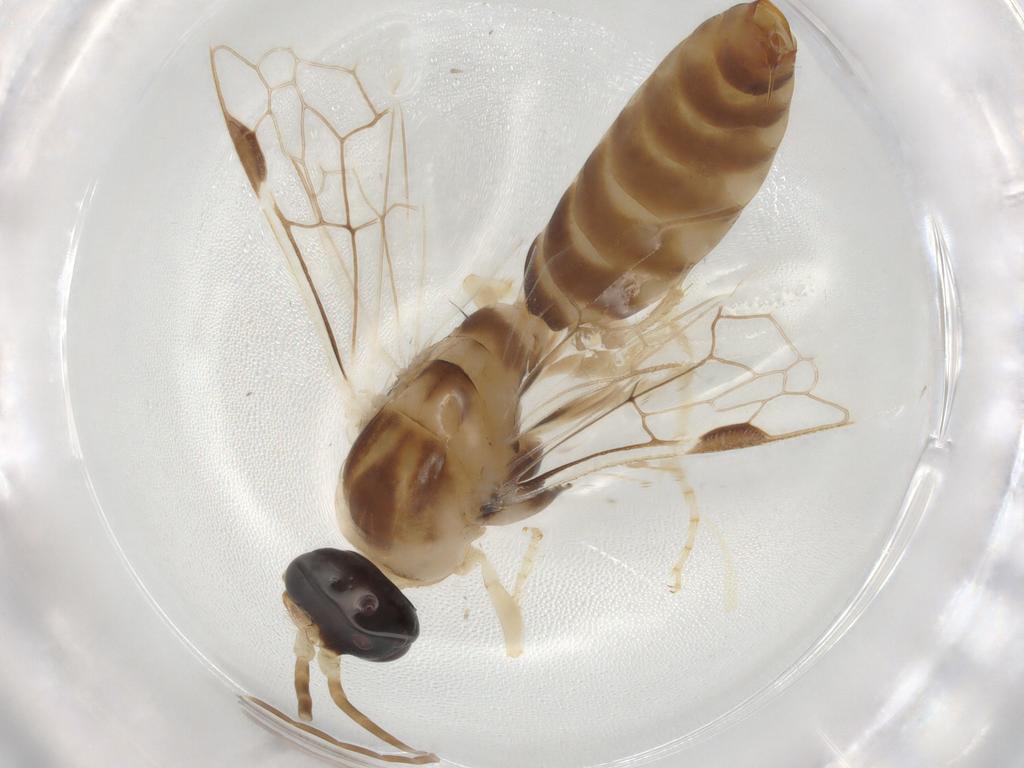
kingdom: Animalia
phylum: Arthropoda
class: Insecta
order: Hymenoptera
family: Tiphiidae
